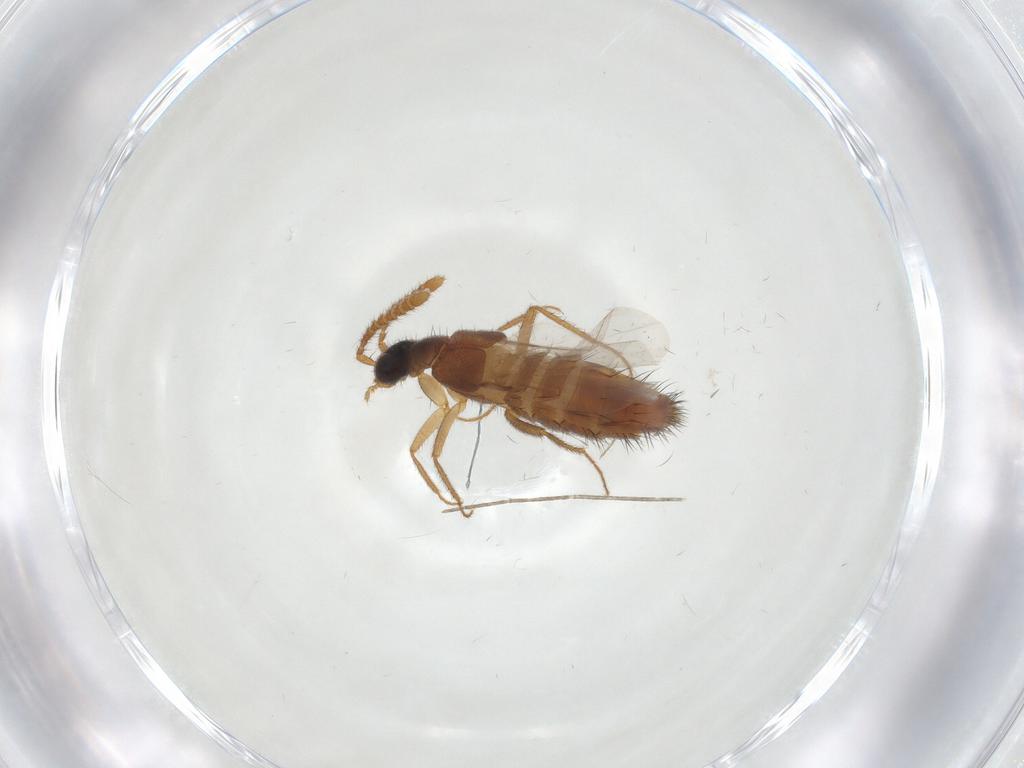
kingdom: Animalia
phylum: Arthropoda
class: Insecta
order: Coleoptera
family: Staphylinidae
